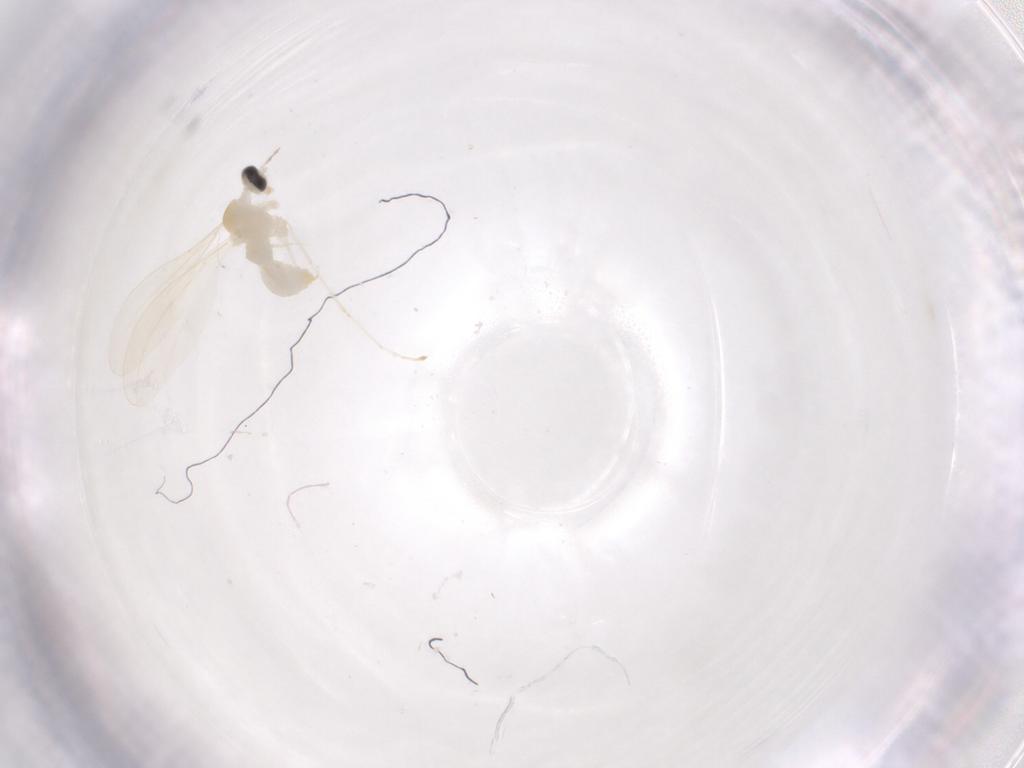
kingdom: Animalia
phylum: Arthropoda
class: Insecta
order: Diptera
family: Cecidomyiidae
